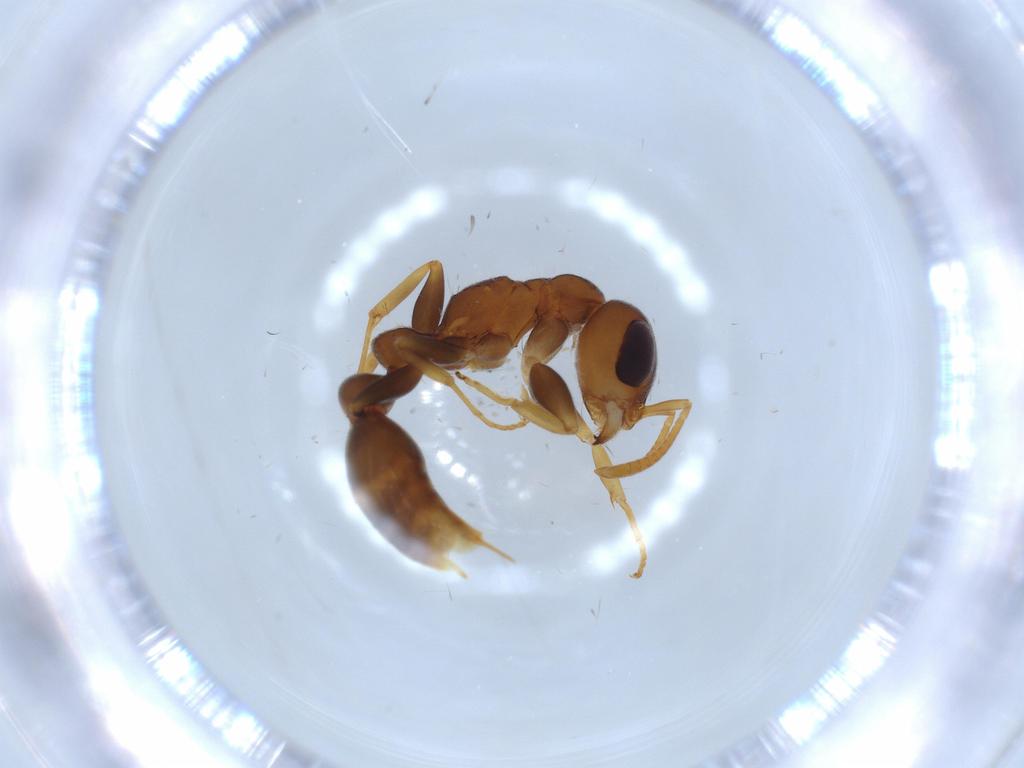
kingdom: Animalia
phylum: Arthropoda
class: Insecta
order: Hymenoptera
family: Formicidae
